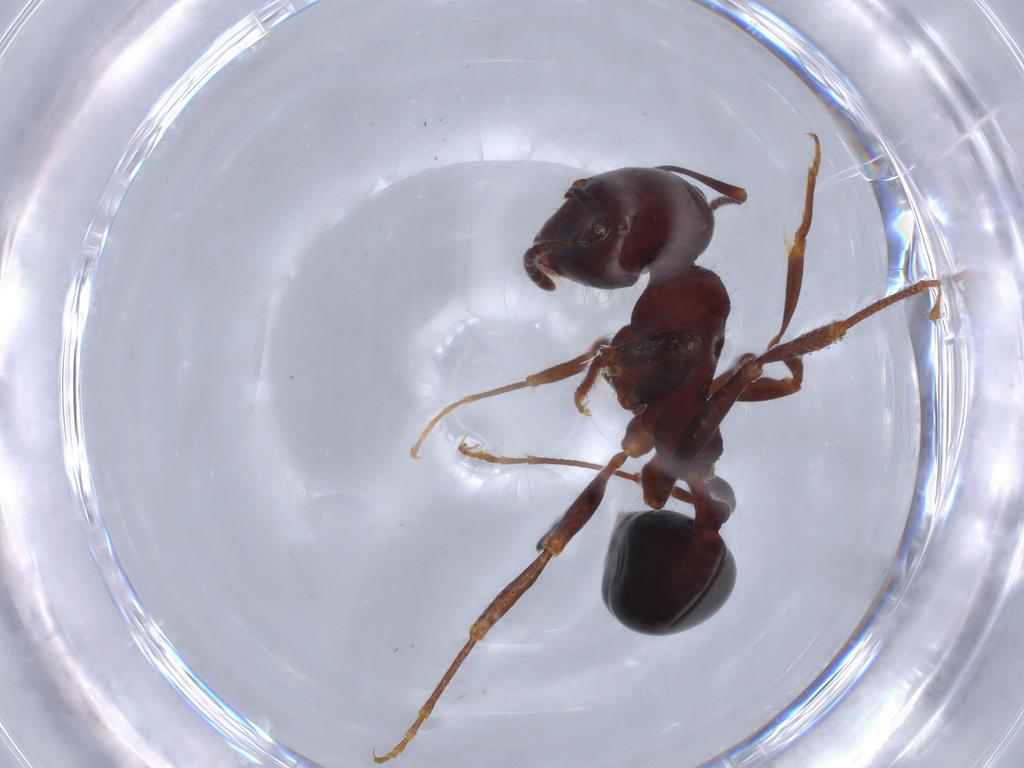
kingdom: Animalia
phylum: Arthropoda
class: Insecta
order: Hymenoptera
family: Formicidae
